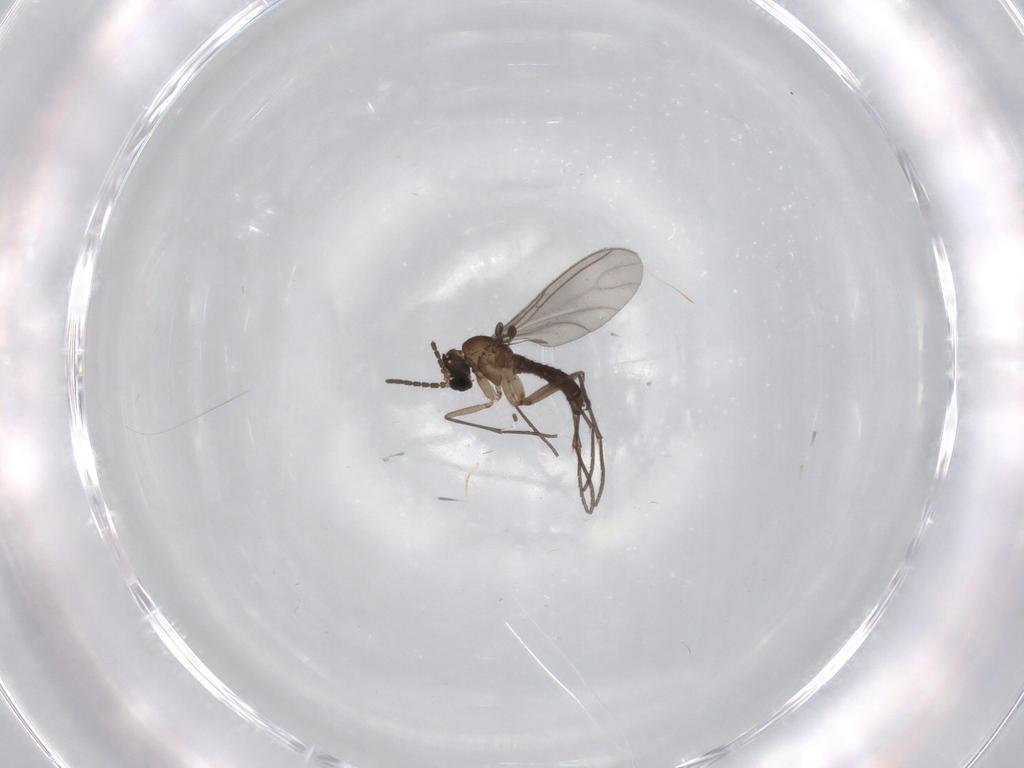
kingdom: Animalia
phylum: Arthropoda
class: Insecta
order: Diptera
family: Sciaridae
